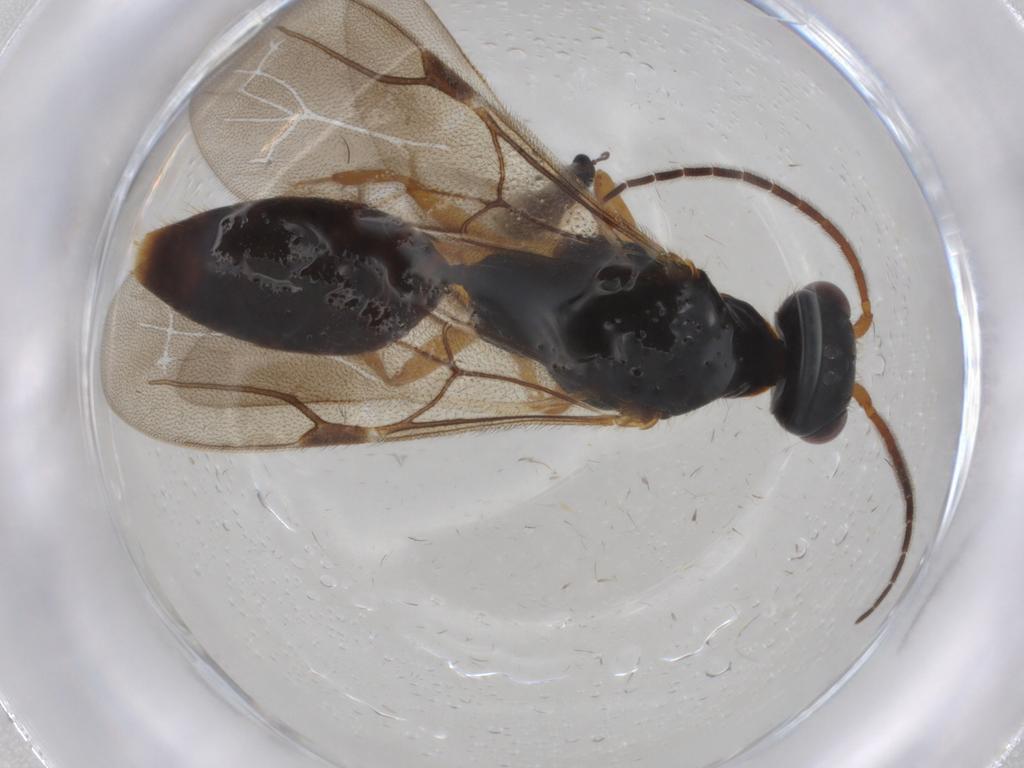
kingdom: Animalia
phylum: Arthropoda
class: Insecta
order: Hymenoptera
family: Bethylidae
